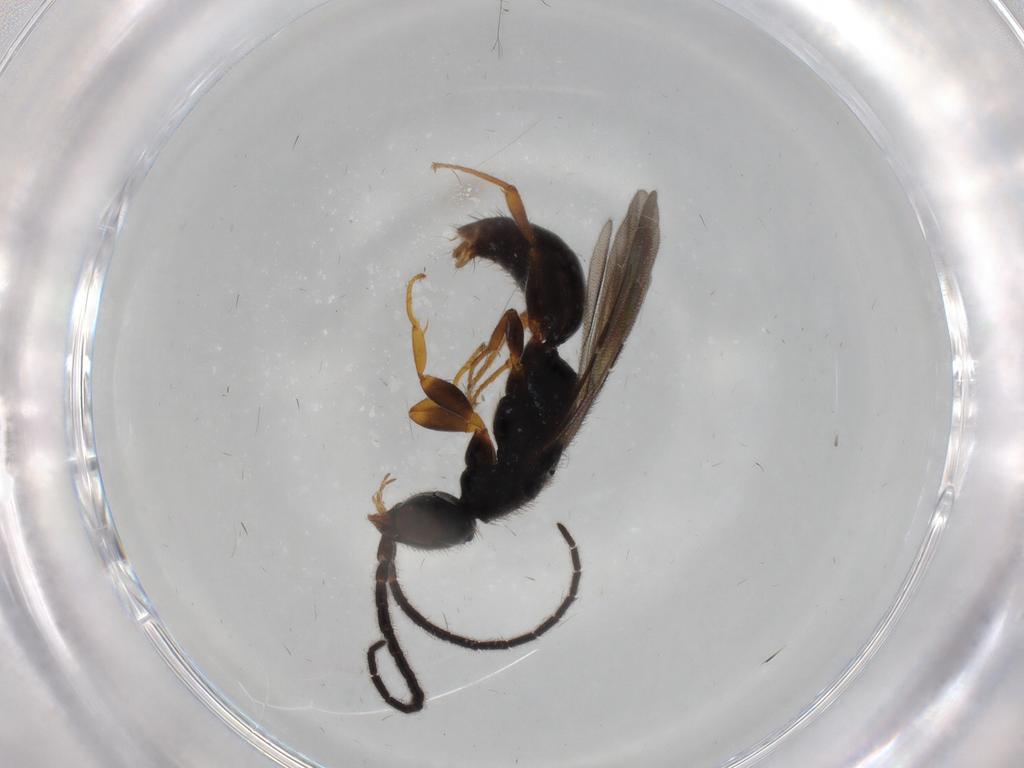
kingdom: Animalia
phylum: Arthropoda
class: Insecta
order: Hymenoptera
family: Bethylidae
